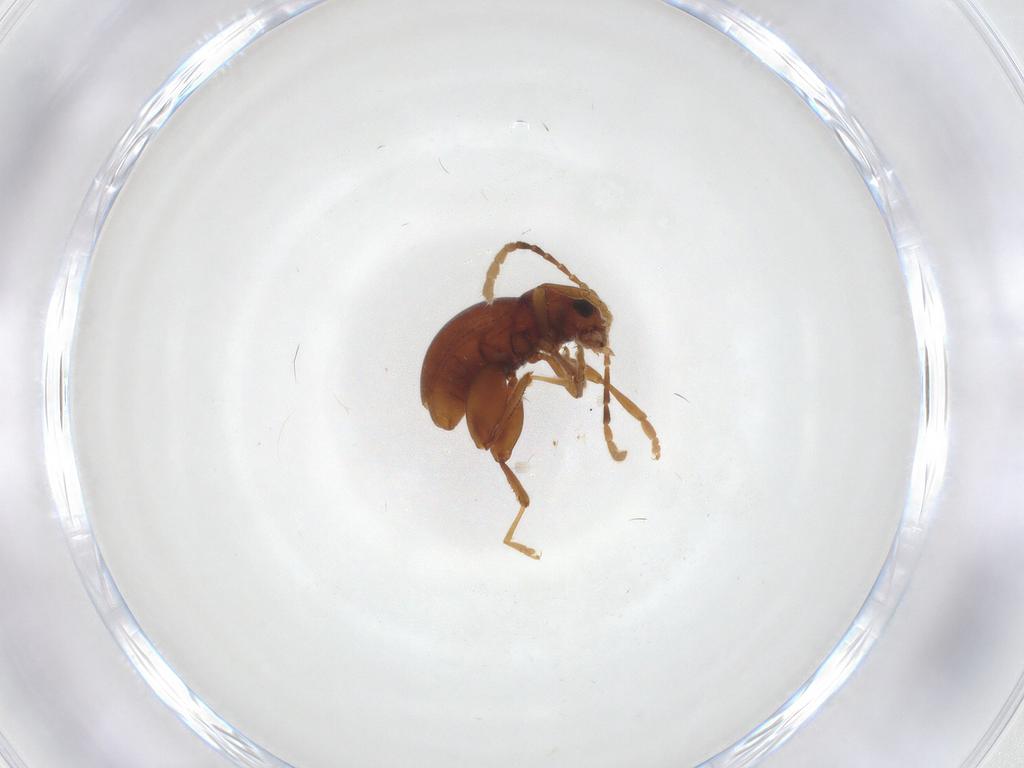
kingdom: Animalia
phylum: Arthropoda
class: Insecta
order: Coleoptera
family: Chrysomelidae
